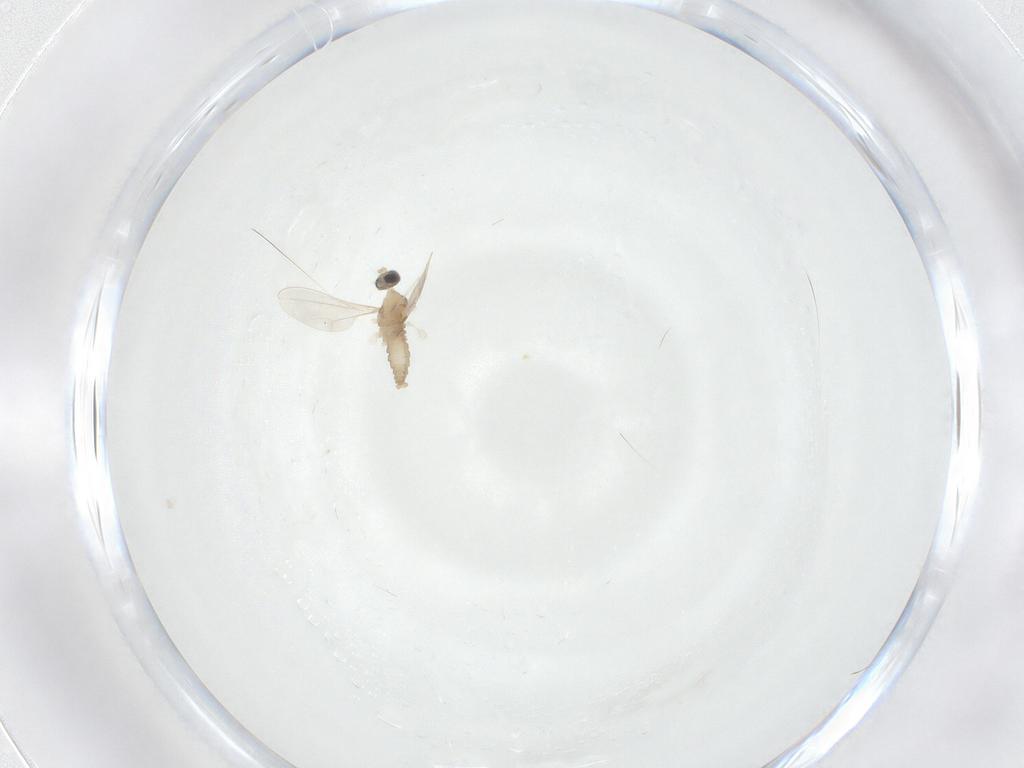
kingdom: Animalia
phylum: Arthropoda
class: Insecta
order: Diptera
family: Cecidomyiidae
